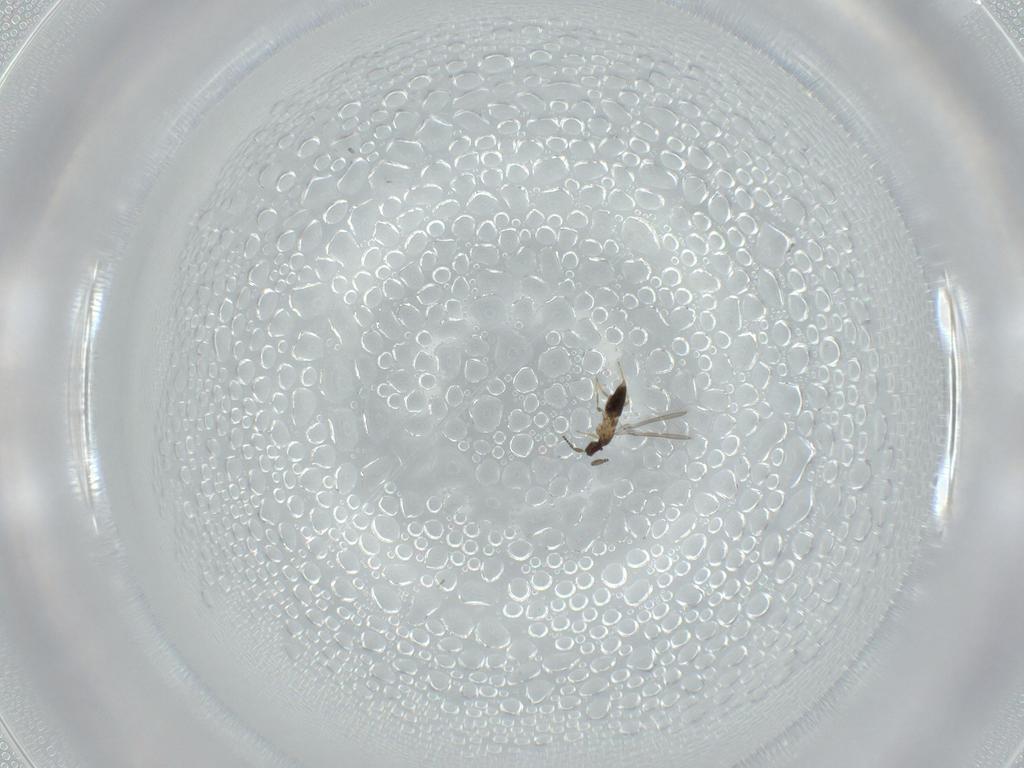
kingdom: Animalia
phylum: Arthropoda
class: Insecta
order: Hymenoptera
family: Mymaridae
